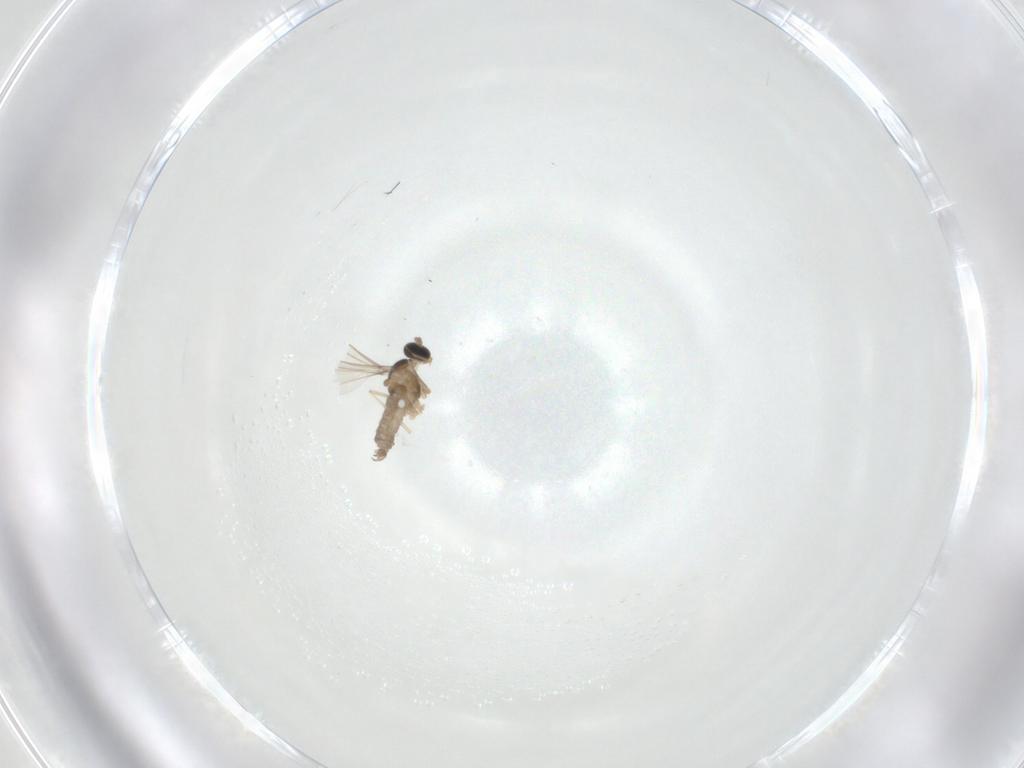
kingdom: Animalia
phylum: Arthropoda
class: Insecta
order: Diptera
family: Cecidomyiidae
